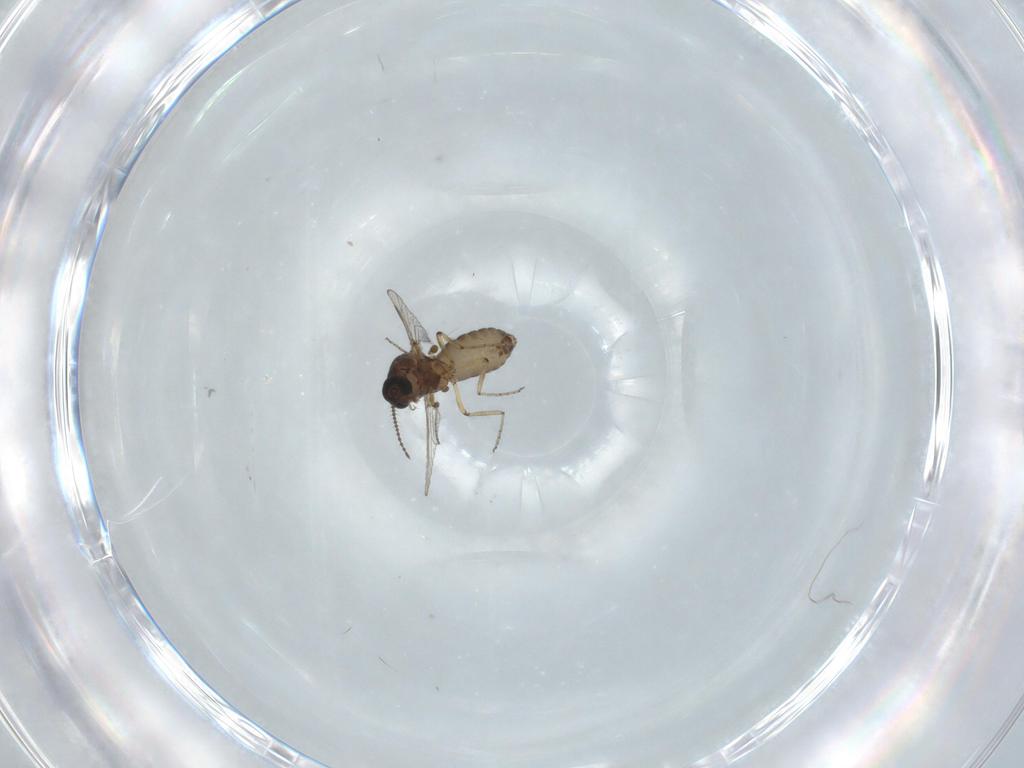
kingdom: Animalia
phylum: Arthropoda
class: Insecta
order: Diptera
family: Ceratopogonidae
